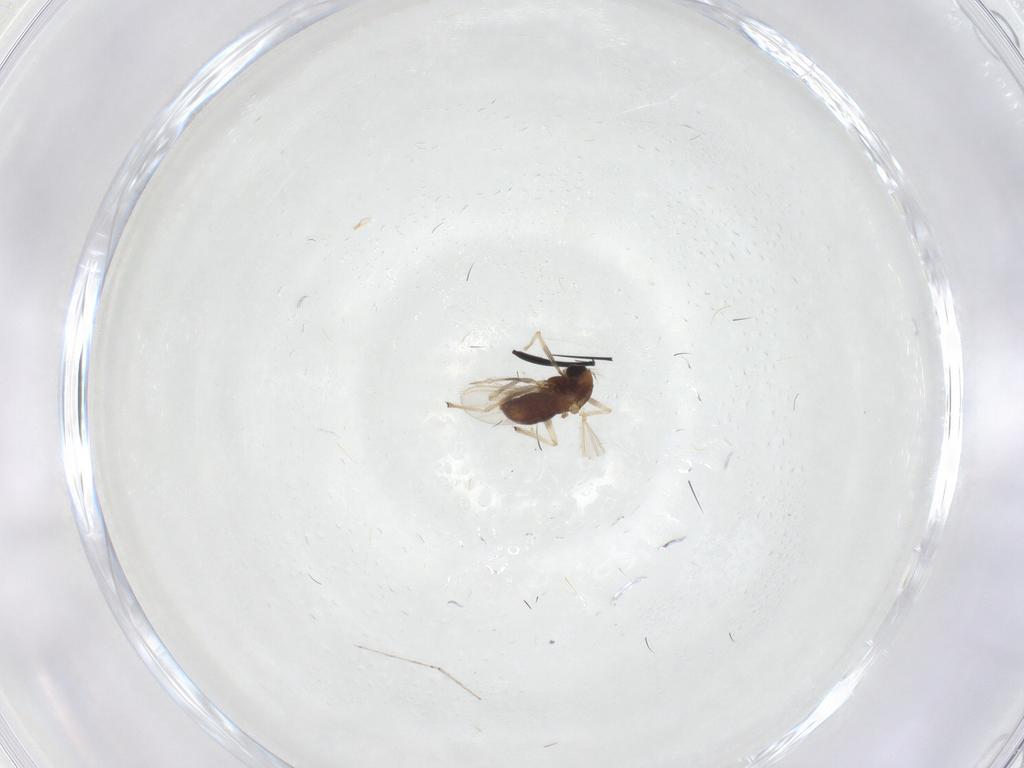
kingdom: Animalia
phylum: Arthropoda
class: Insecta
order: Diptera
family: Chironomidae
